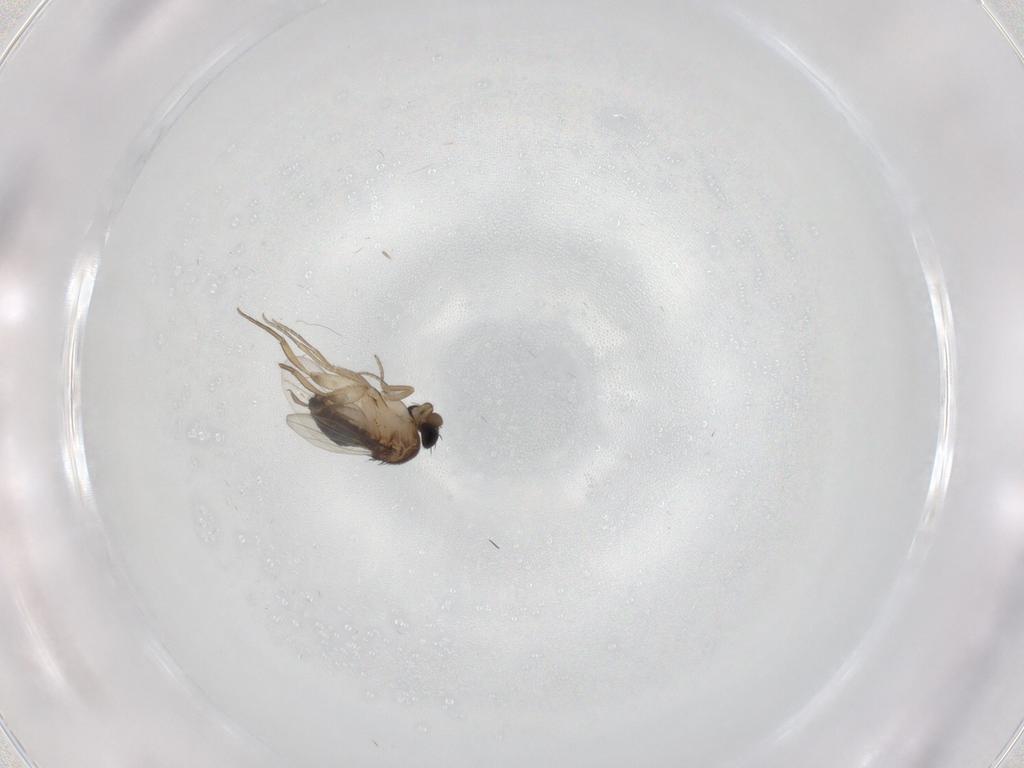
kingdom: Animalia
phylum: Arthropoda
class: Insecta
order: Diptera
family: Phoridae
